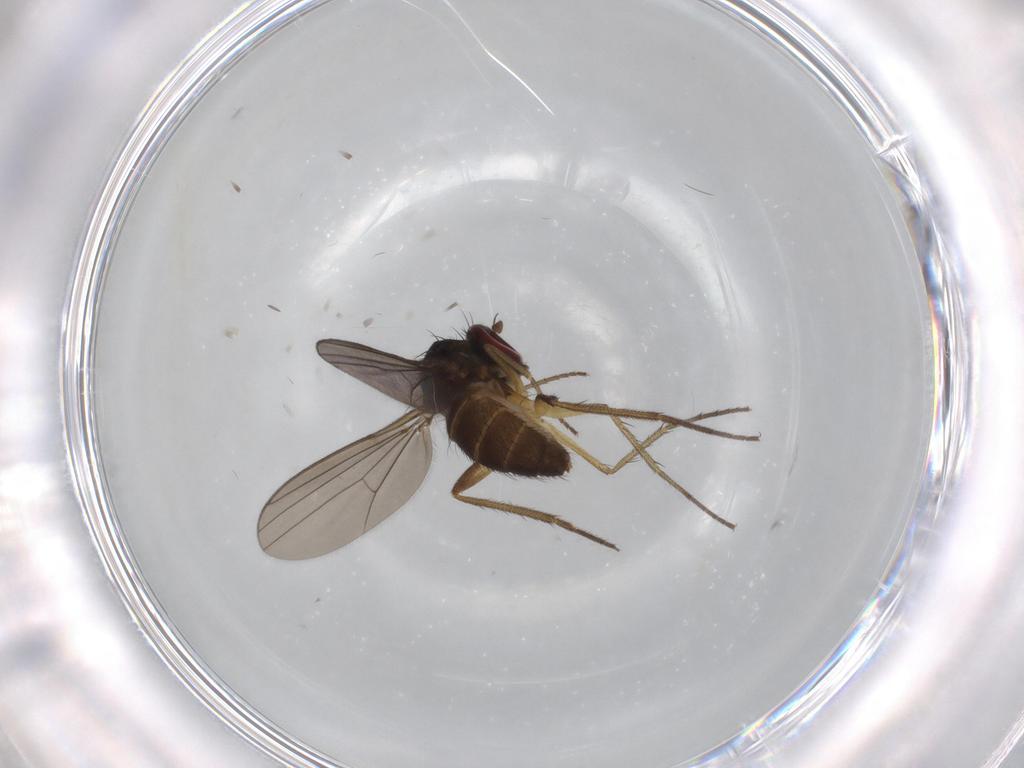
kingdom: Animalia
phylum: Arthropoda
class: Insecta
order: Diptera
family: Dolichopodidae
